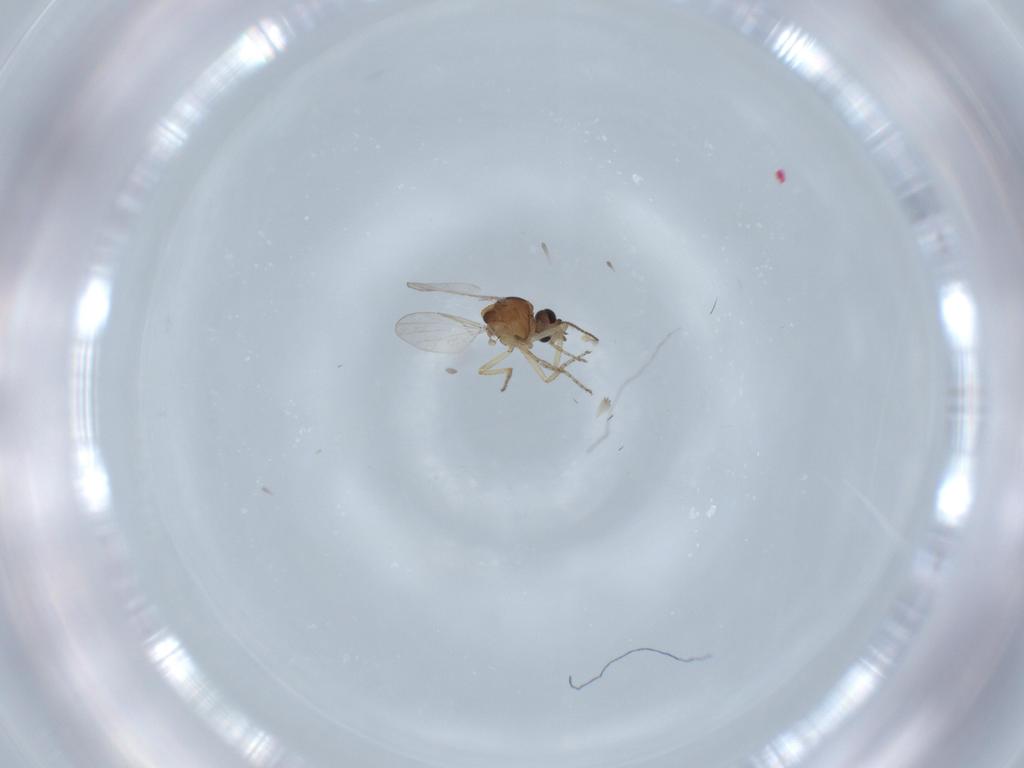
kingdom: Animalia
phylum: Arthropoda
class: Insecta
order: Diptera
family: Ceratopogonidae
